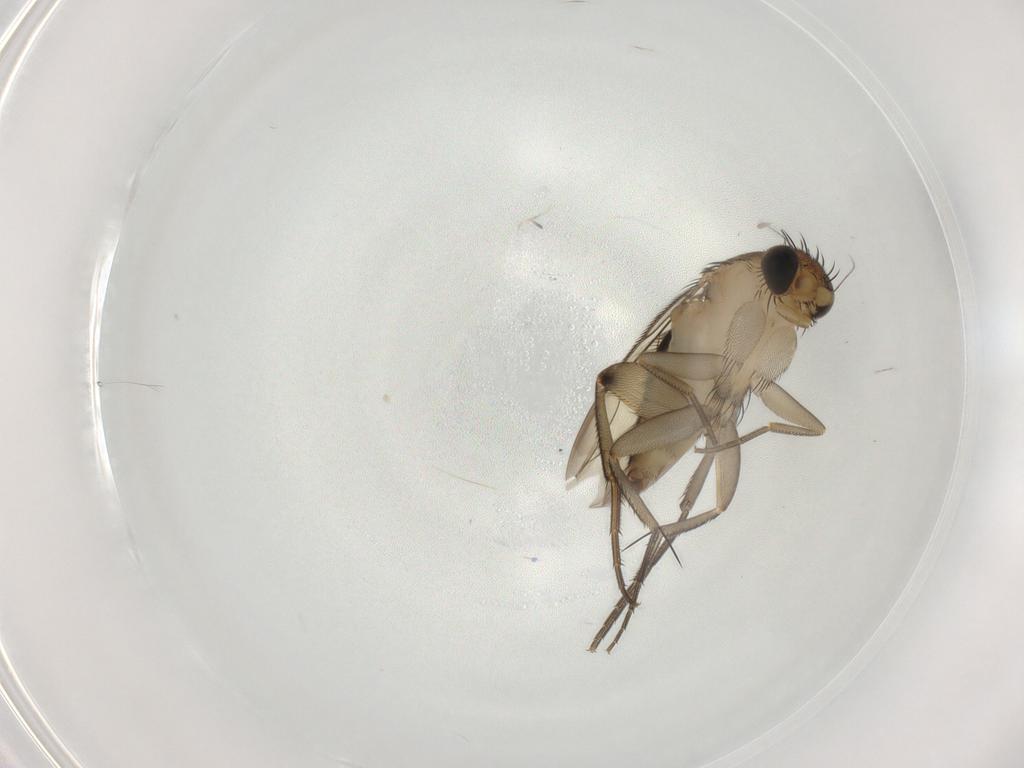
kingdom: Animalia
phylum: Arthropoda
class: Insecta
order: Diptera
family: Phoridae
